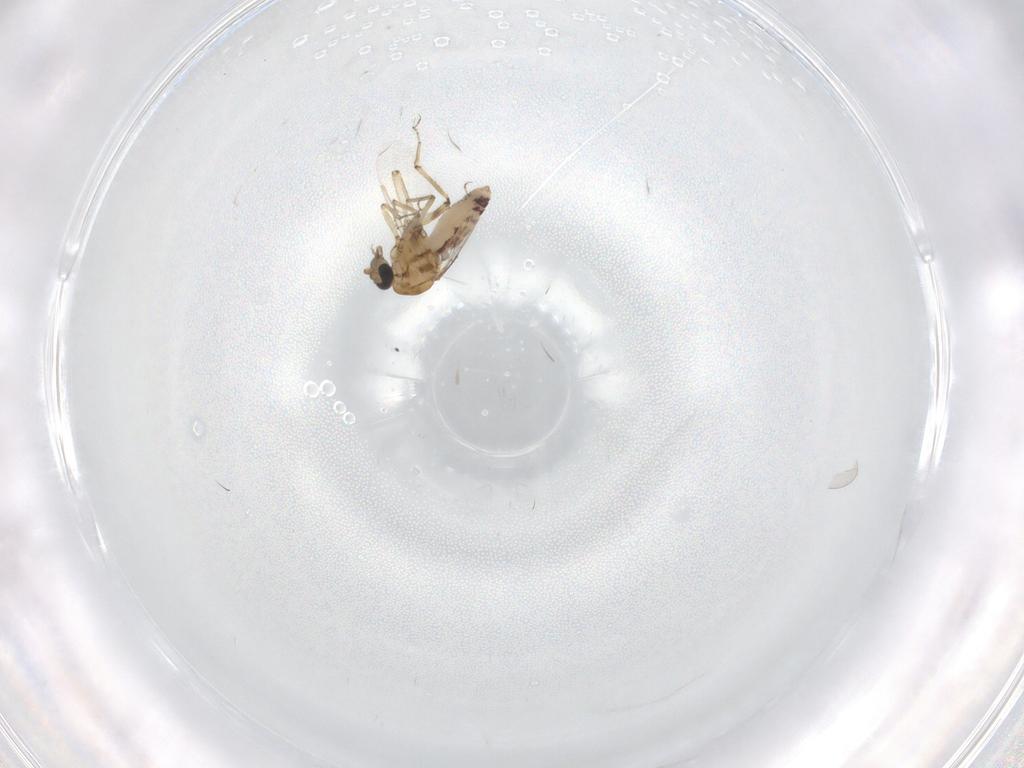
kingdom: Animalia
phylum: Arthropoda
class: Insecta
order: Diptera
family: Ceratopogonidae
